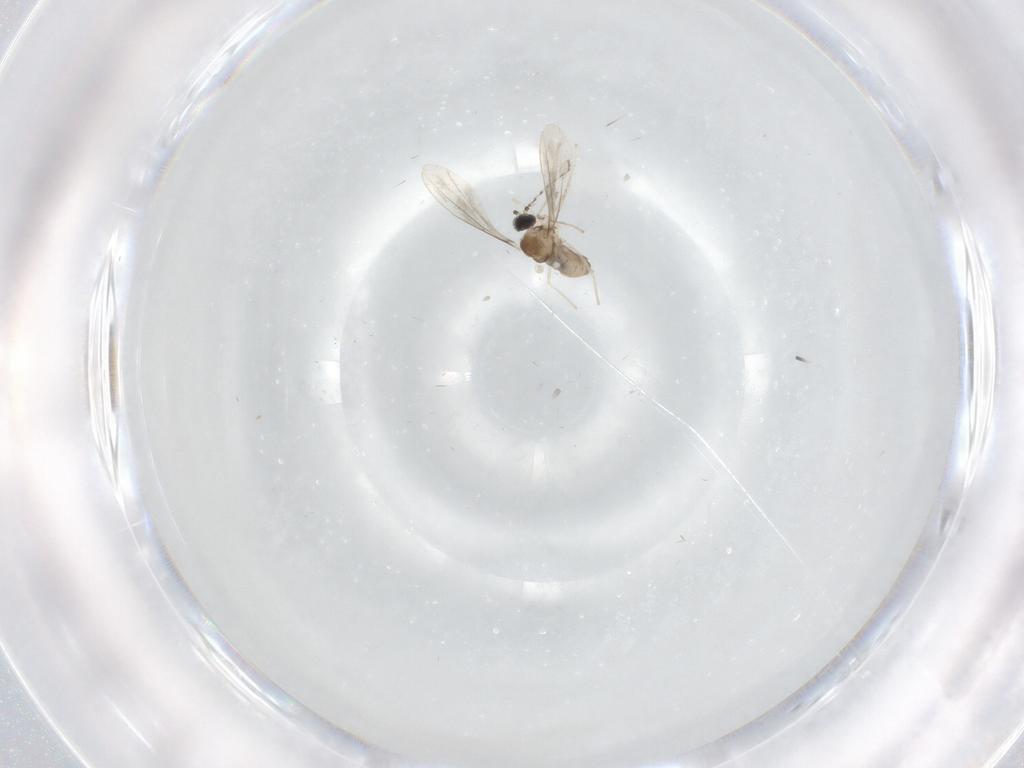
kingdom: Animalia
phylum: Arthropoda
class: Insecta
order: Diptera
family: Cecidomyiidae
